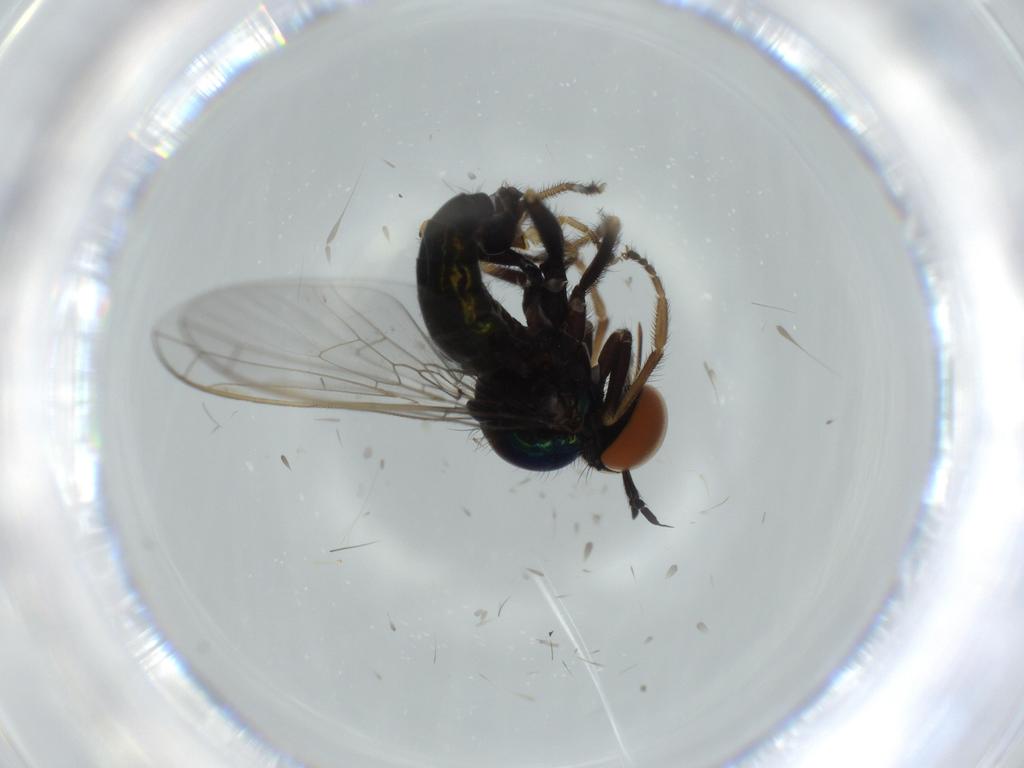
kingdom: Animalia
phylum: Arthropoda
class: Insecta
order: Diptera
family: Empididae
